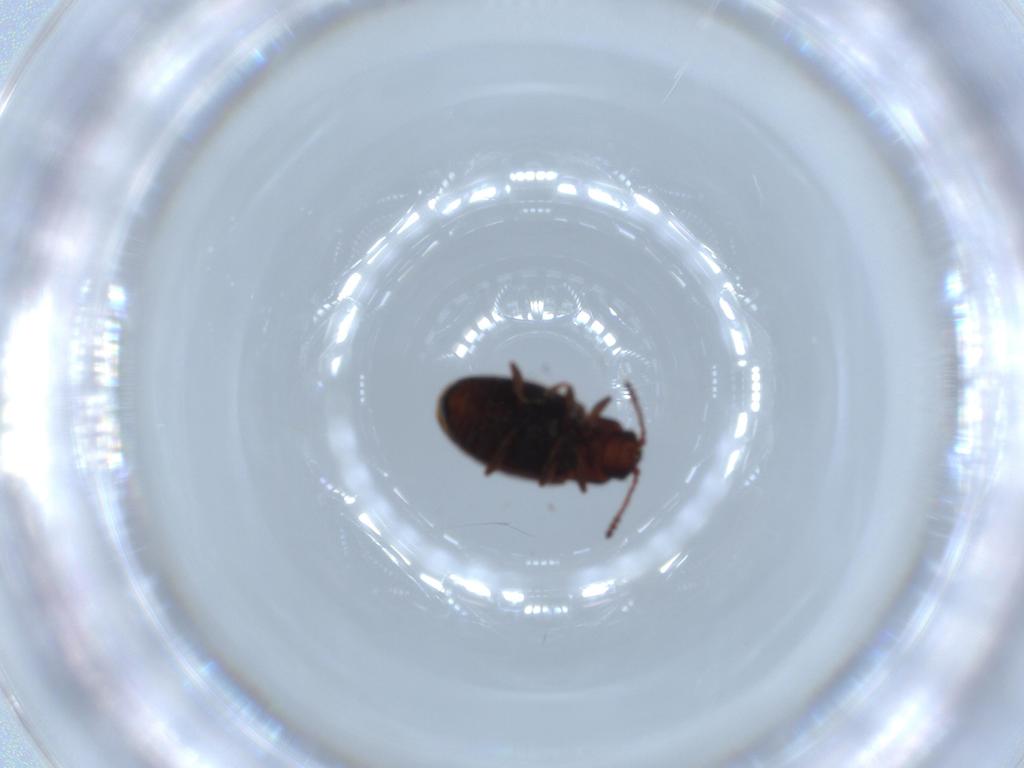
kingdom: Animalia
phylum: Arthropoda
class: Insecta
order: Coleoptera
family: Cryptophagidae
